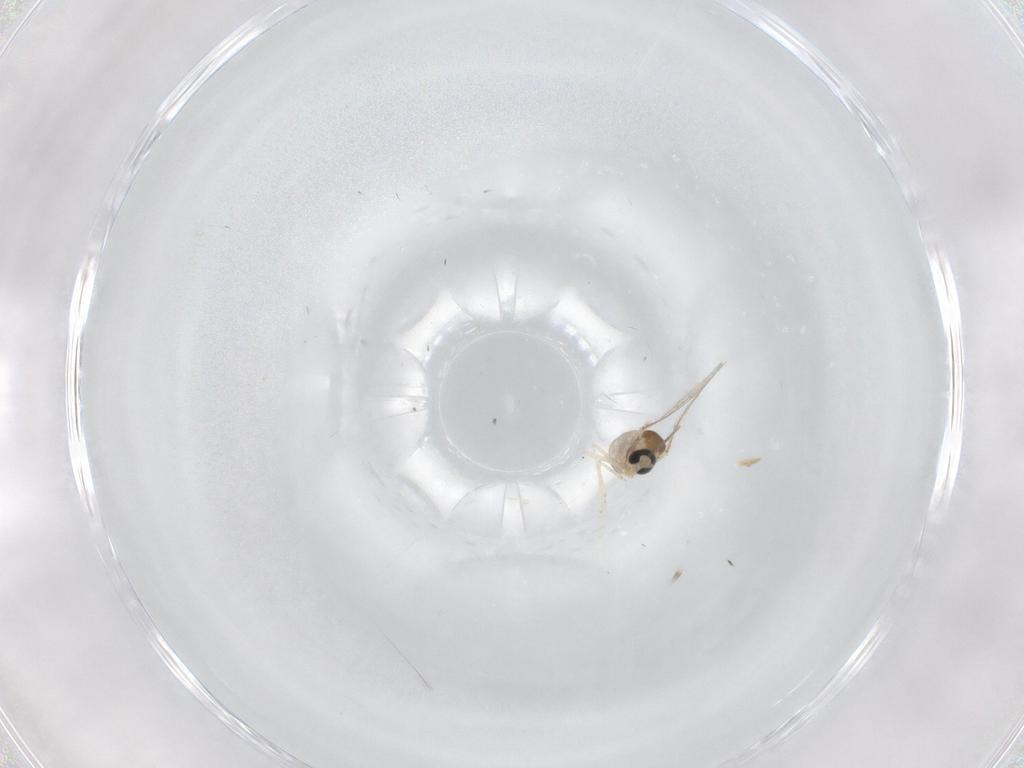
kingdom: Animalia
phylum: Arthropoda
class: Insecta
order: Diptera
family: Cecidomyiidae
